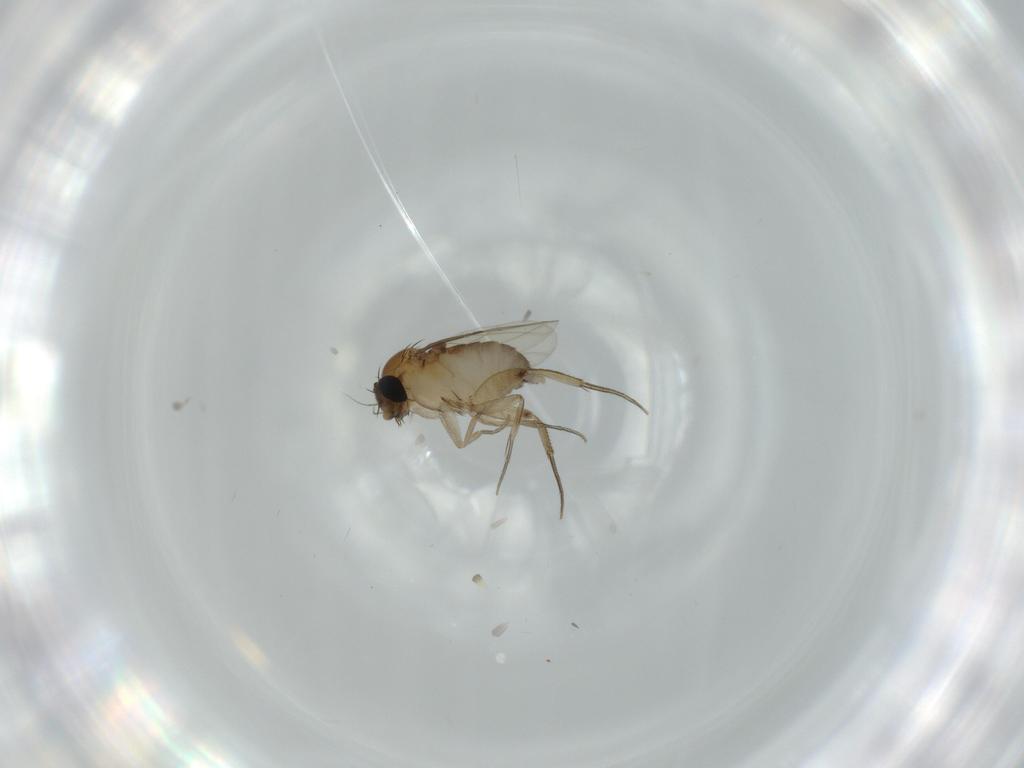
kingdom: Animalia
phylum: Arthropoda
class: Insecta
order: Diptera
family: Phoridae
